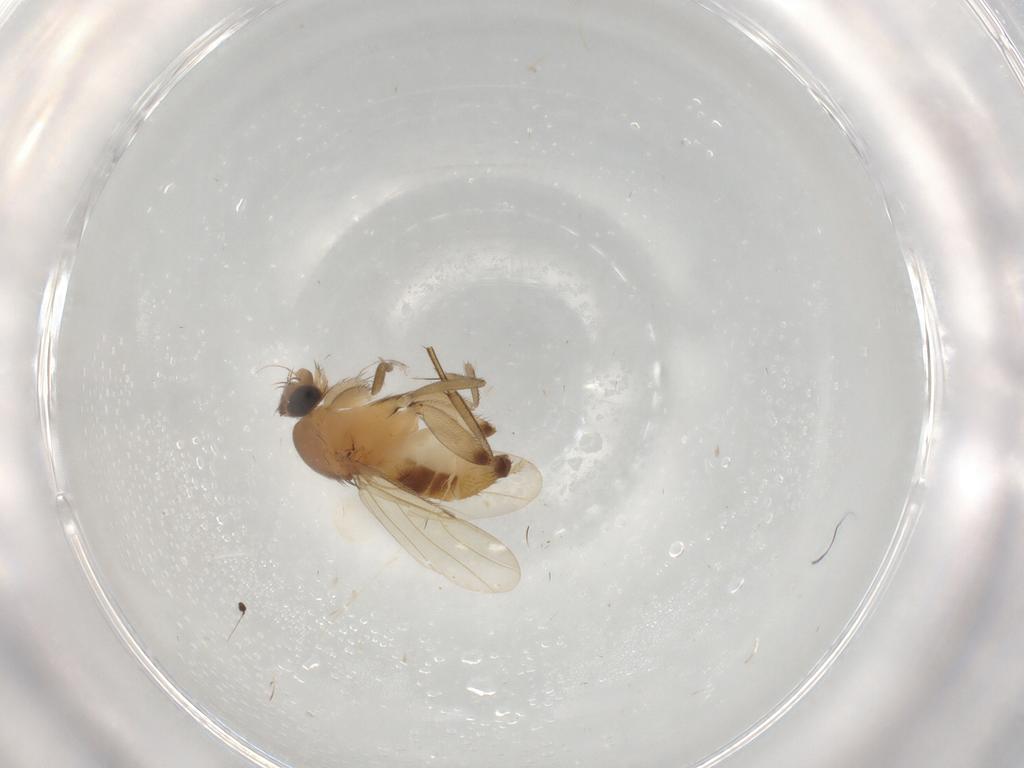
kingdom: Animalia
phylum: Arthropoda
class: Insecta
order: Diptera
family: Phoridae
